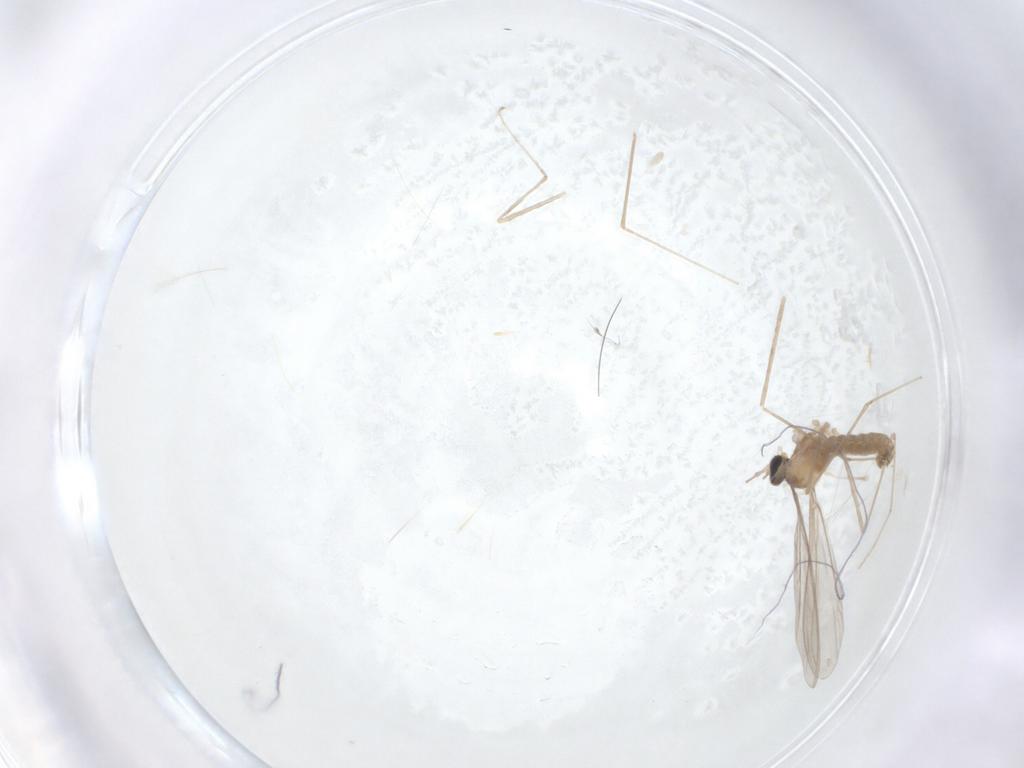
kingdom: Animalia
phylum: Arthropoda
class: Insecta
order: Diptera
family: Cecidomyiidae
